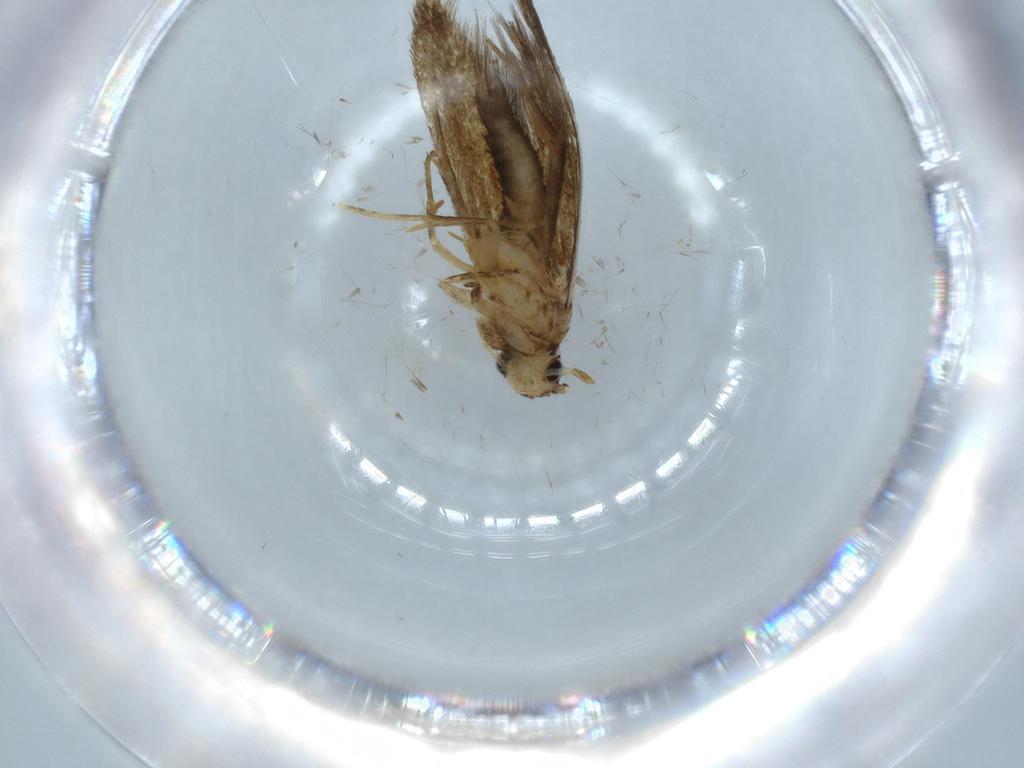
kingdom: Animalia
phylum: Arthropoda
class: Insecta
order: Lepidoptera
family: Tineidae
